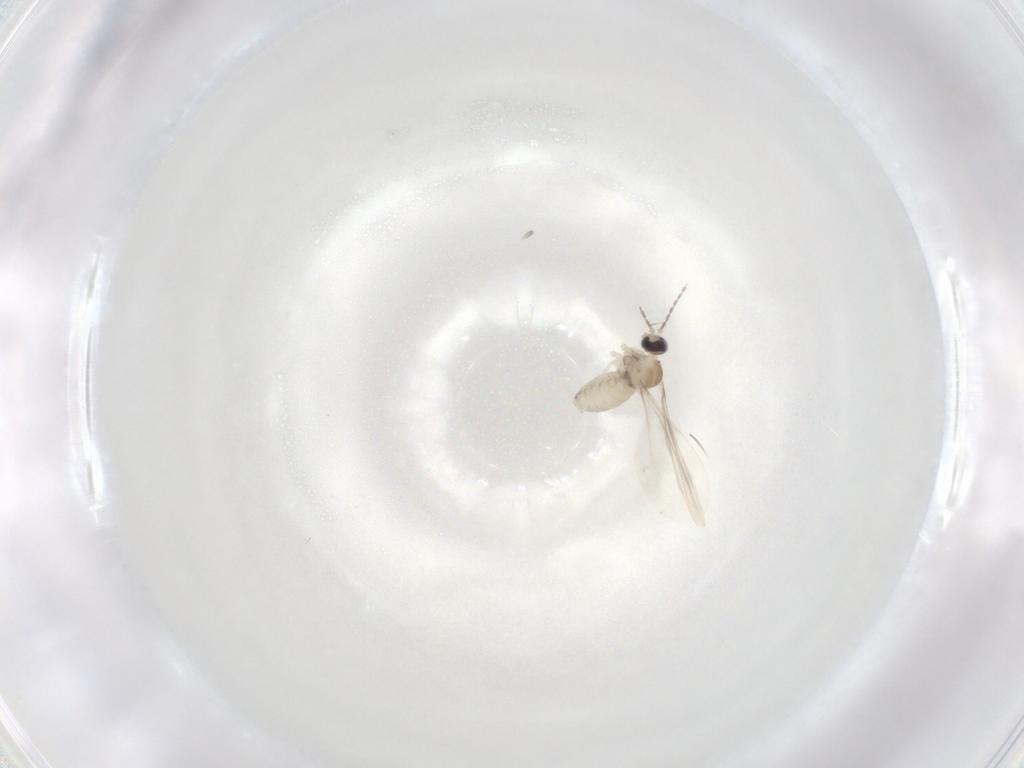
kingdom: Animalia
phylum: Arthropoda
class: Insecta
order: Diptera
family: Cecidomyiidae
